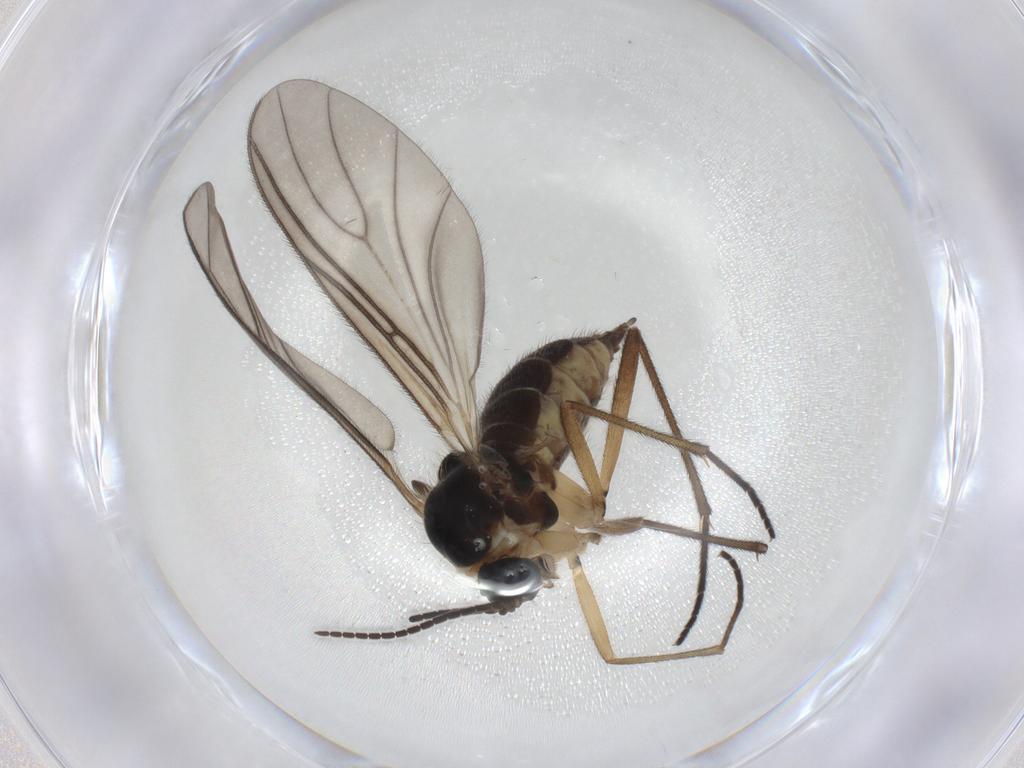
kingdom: Animalia
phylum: Arthropoda
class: Insecta
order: Diptera
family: Sciaridae
